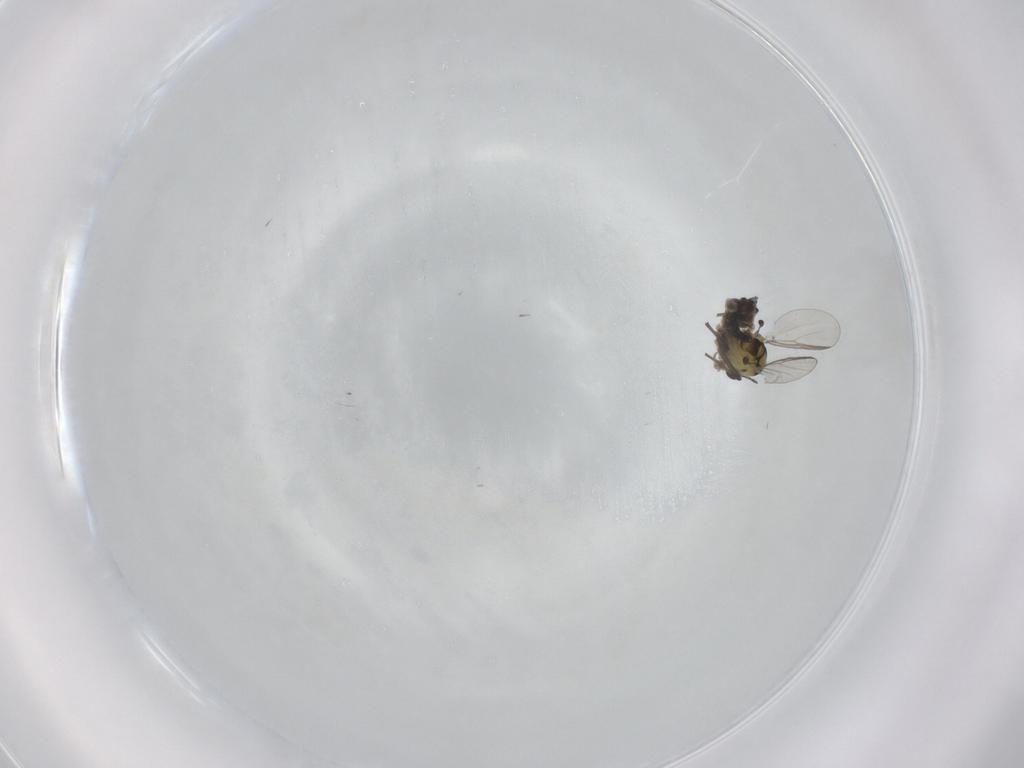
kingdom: Animalia
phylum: Arthropoda
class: Insecta
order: Diptera
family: Chironomidae
